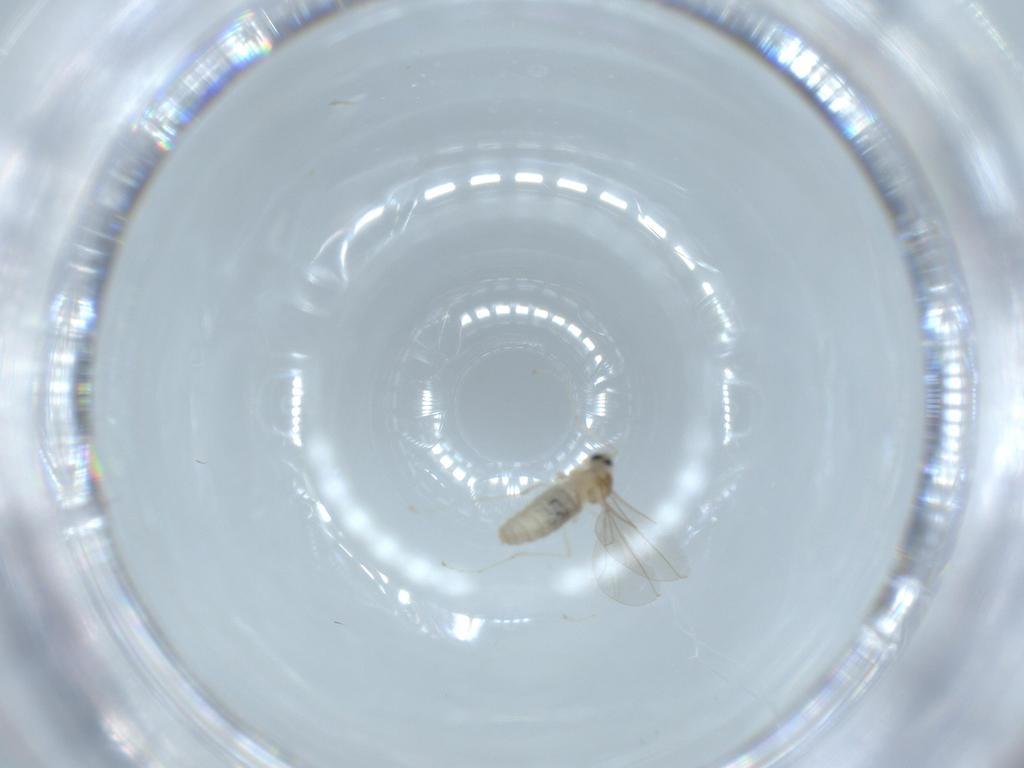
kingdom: Animalia
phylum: Arthropoda
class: Insecta
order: Diptera
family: Cecidomyiidae
